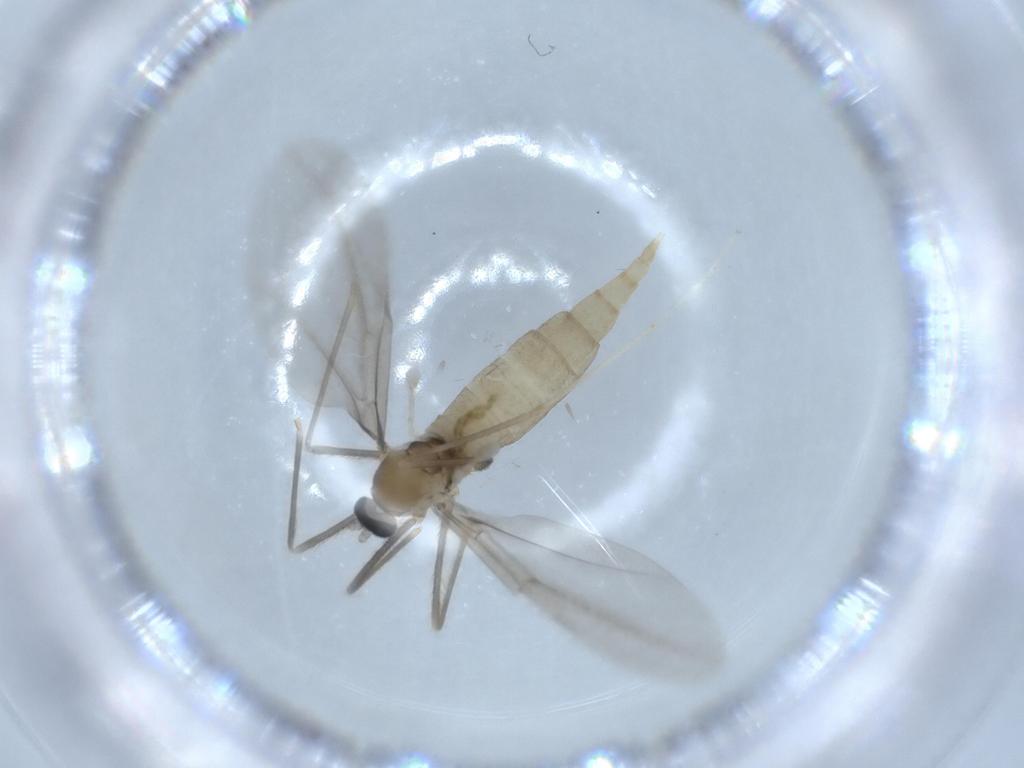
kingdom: Animalia
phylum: Arthropoda
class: Insecta
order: Diptera
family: Cecidomyiidae
